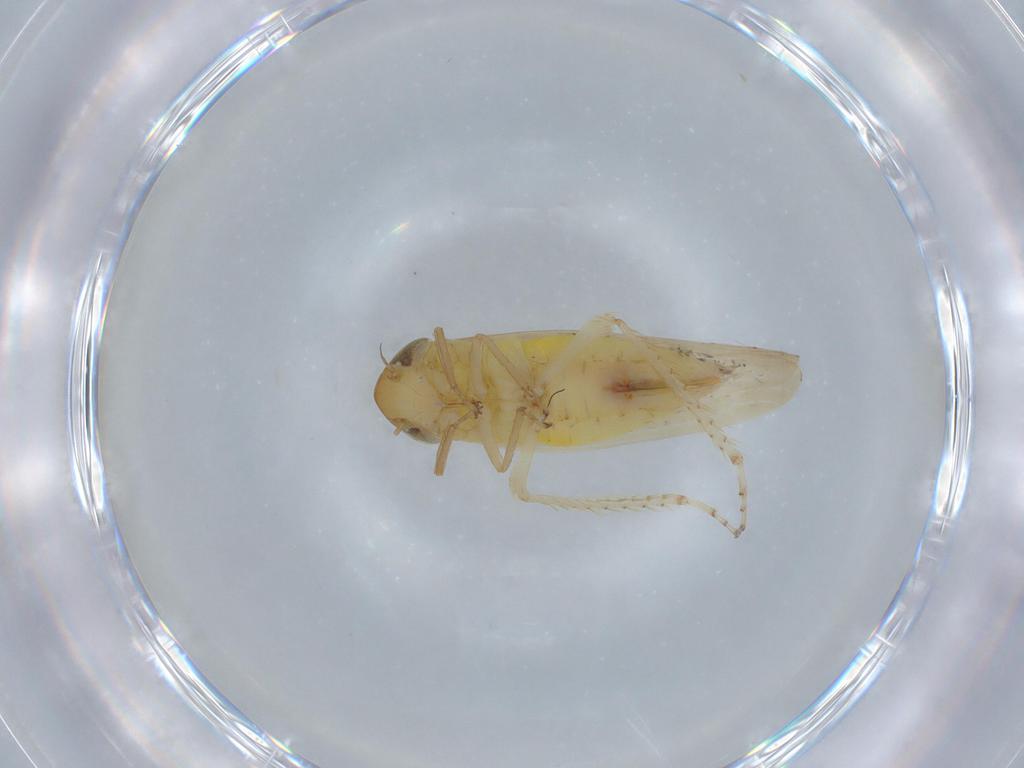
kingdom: Animalia
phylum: Arthropoda
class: Insecta
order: Hemiptera
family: Cicadellidae
